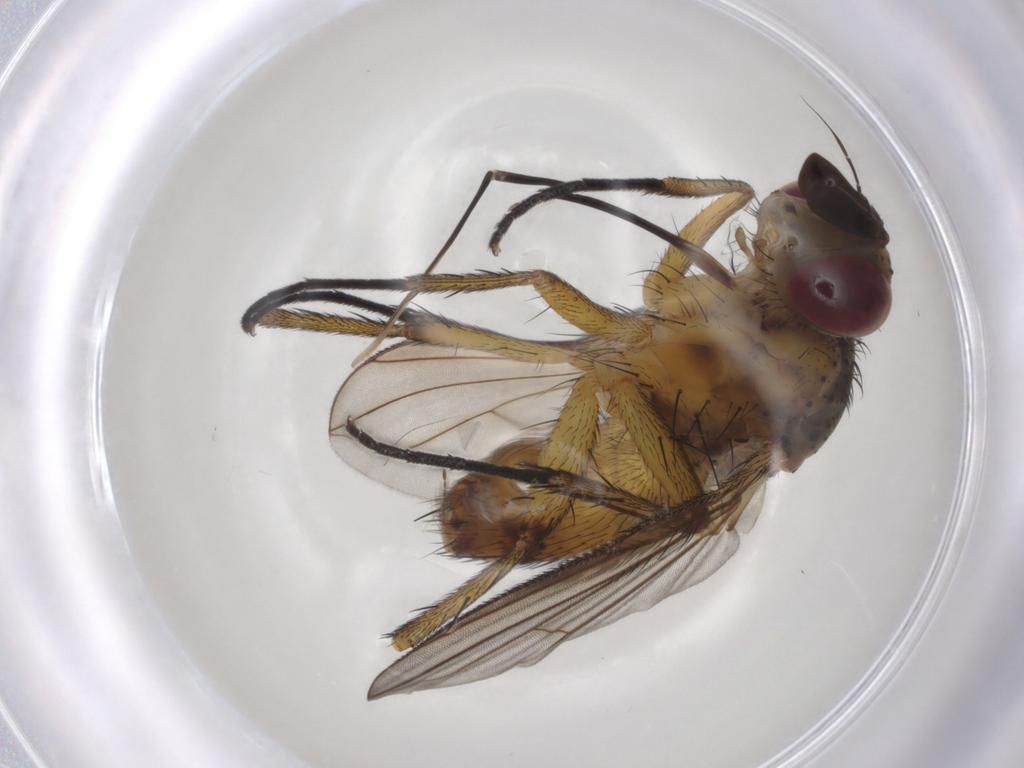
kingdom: Animalia
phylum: Arthropoda
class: Insecta
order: Diptera
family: Tachinidae
